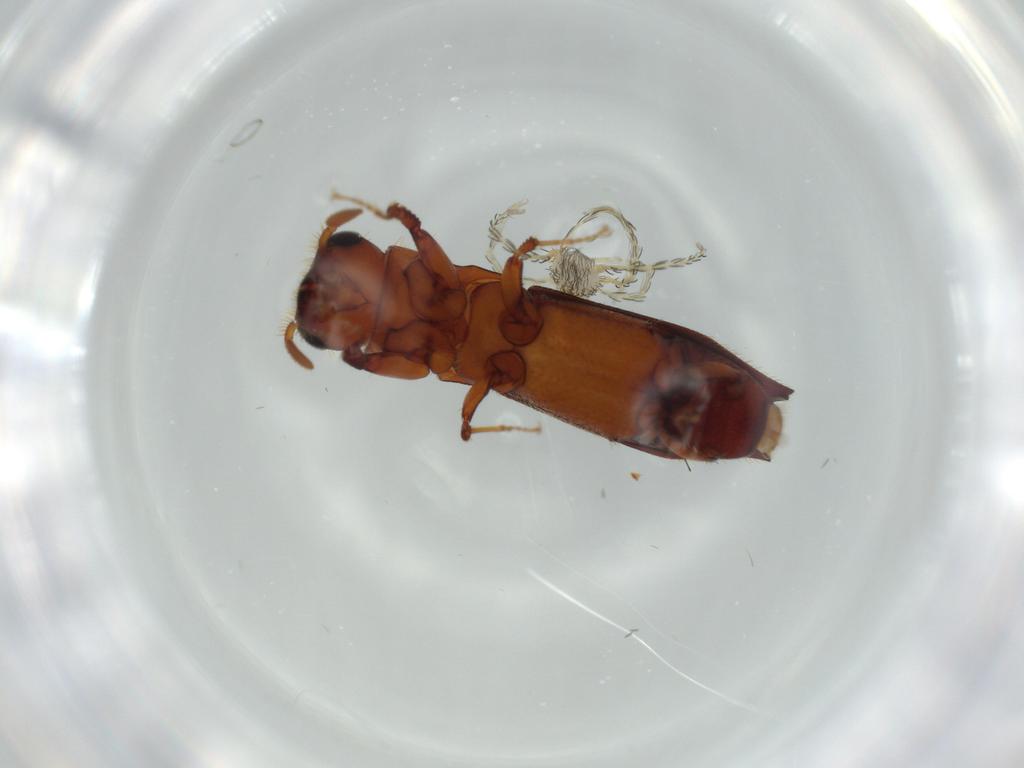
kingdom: Animalia
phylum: Arthropoda
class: Arachnida
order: Trombidiformes
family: Erythraeidae
